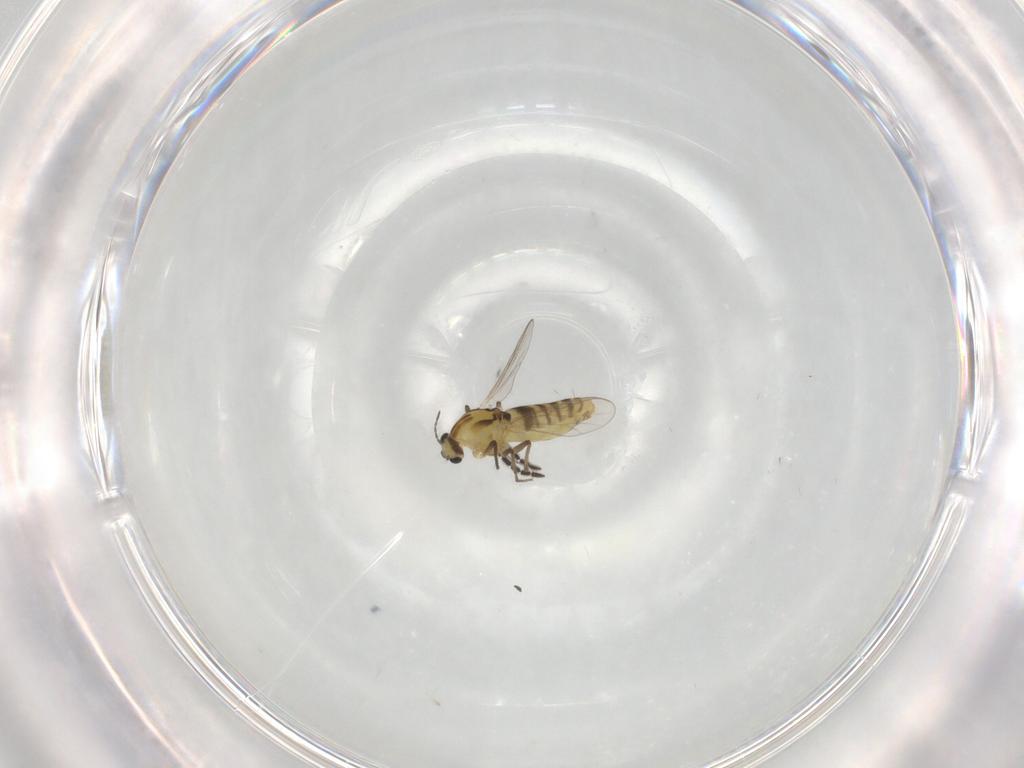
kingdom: Animalia
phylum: Arthropoda
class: Insecta
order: Diptera
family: Chironomidae
